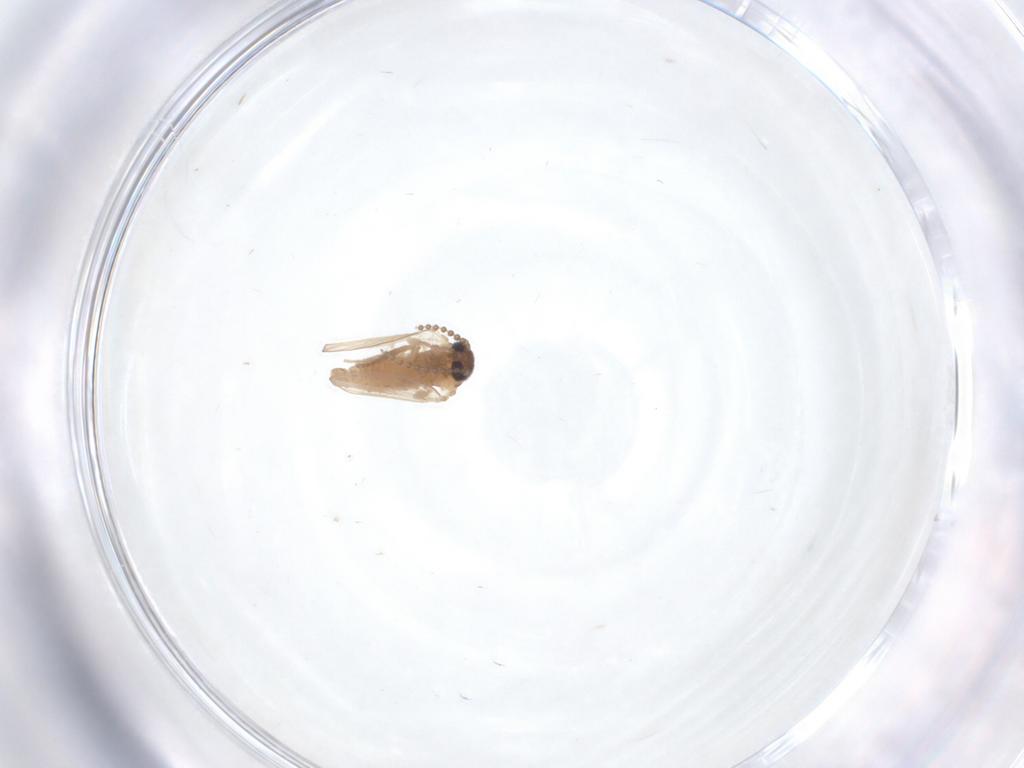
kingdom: Animalia
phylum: Arthropoda
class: Insecta
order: Diptera
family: Psychodidae
